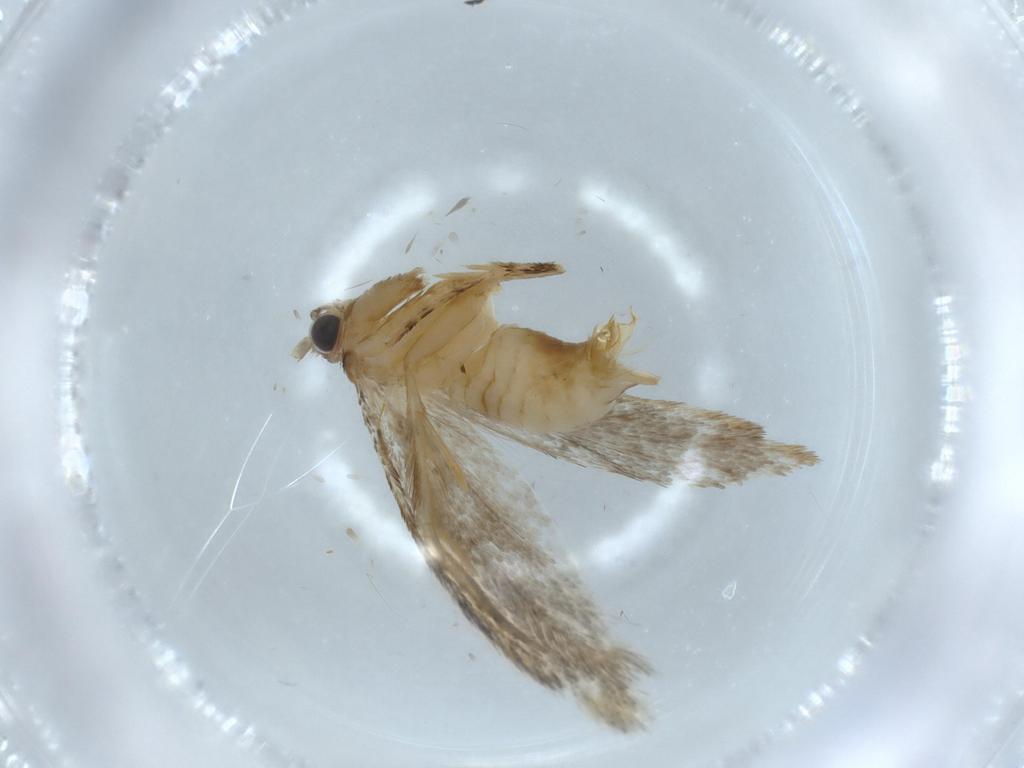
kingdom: Animalia
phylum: Arthropoda
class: Insecta
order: Lepidoptera
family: Tineidae
